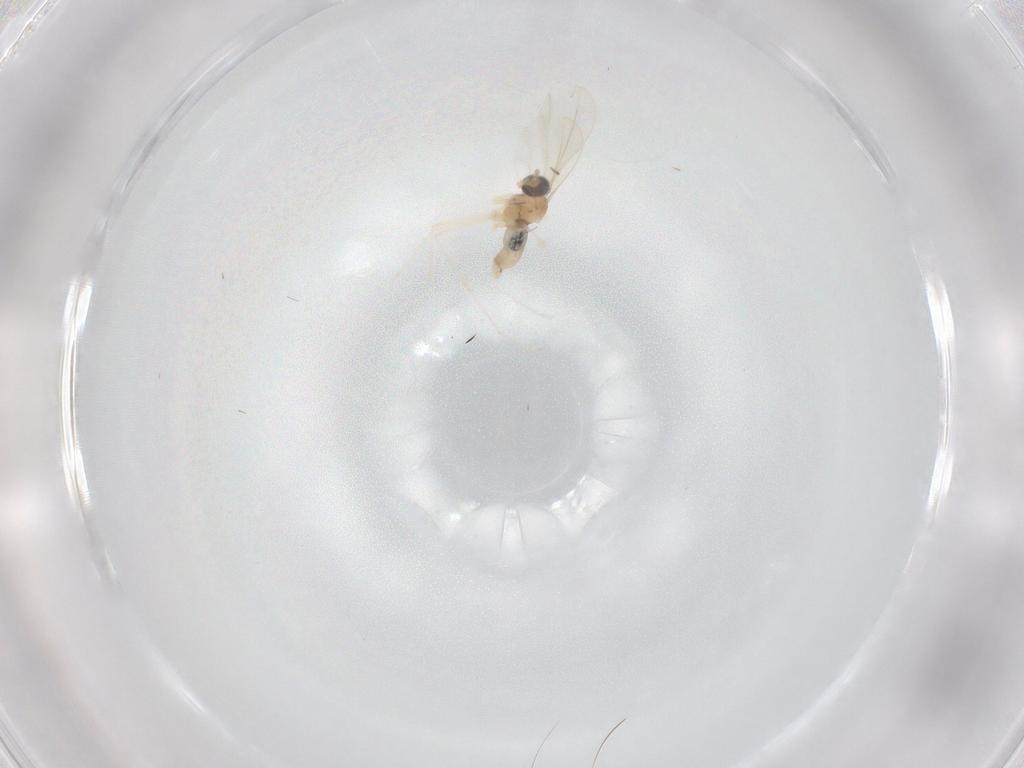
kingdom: Animalia
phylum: Arthropoda
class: Insecta
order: Diptera
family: Cecidomyiidae
